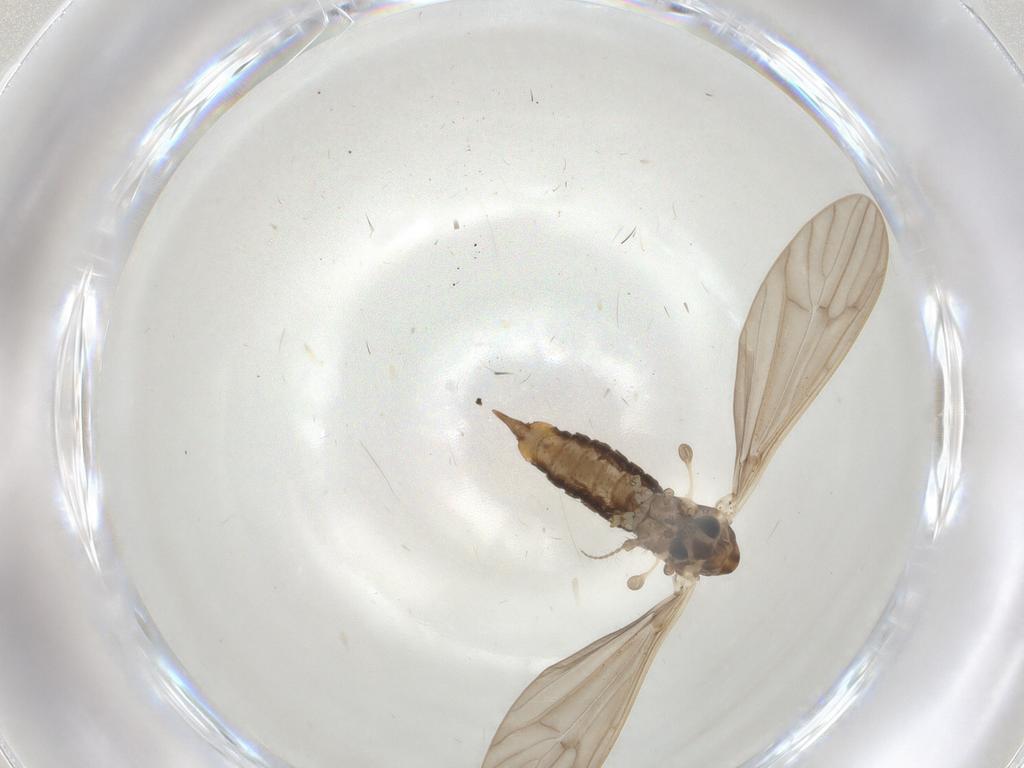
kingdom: Animalia
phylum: Arthropoda
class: Insecta
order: Diptera
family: Limoniidae
